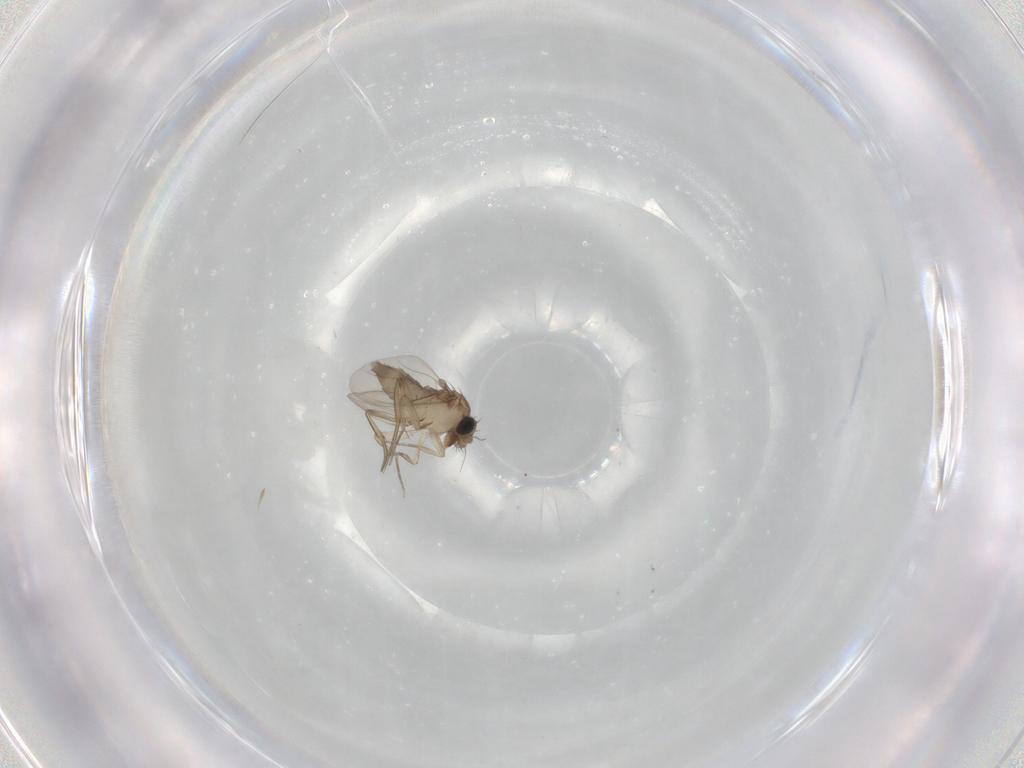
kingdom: Animalia
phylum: Arthropoda
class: Insecta
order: Diptera
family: Phoridae
